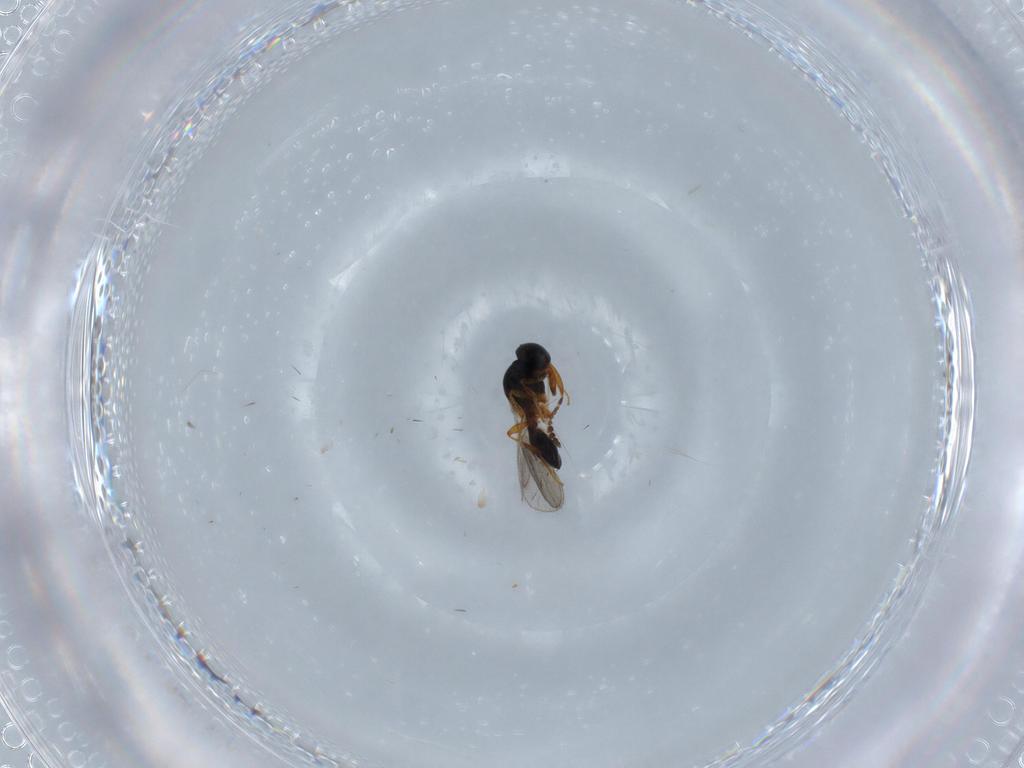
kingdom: Animalia
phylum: Arthropoda
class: Insecta
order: Hymenoptera
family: Platygastridae
